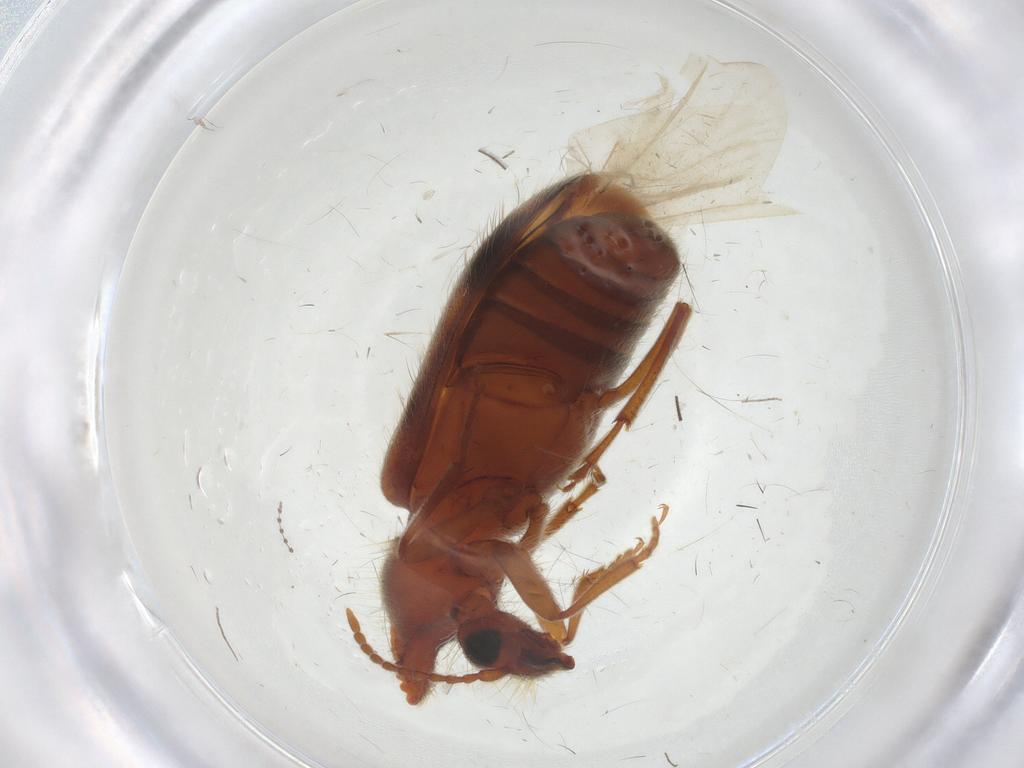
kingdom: Animalia
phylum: Arthropoda
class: Insecta
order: Coleoptera
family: Anthicidae
